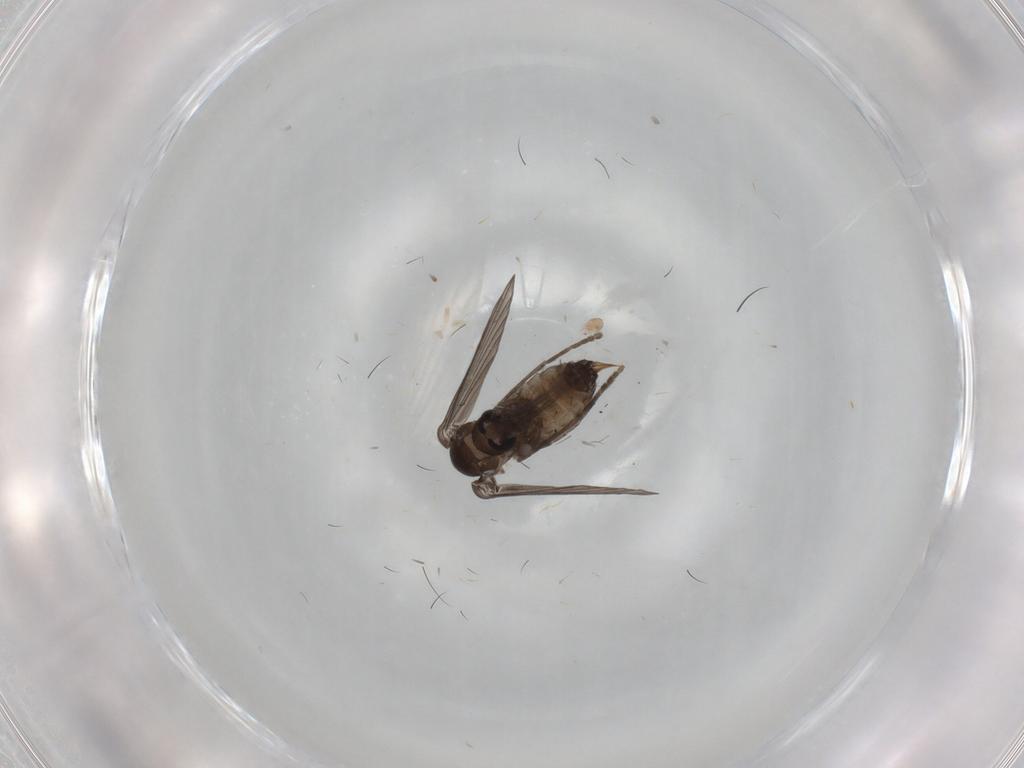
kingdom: Animalia
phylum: Arthropoda
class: Insecta
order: Diptera
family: Psychodidae
